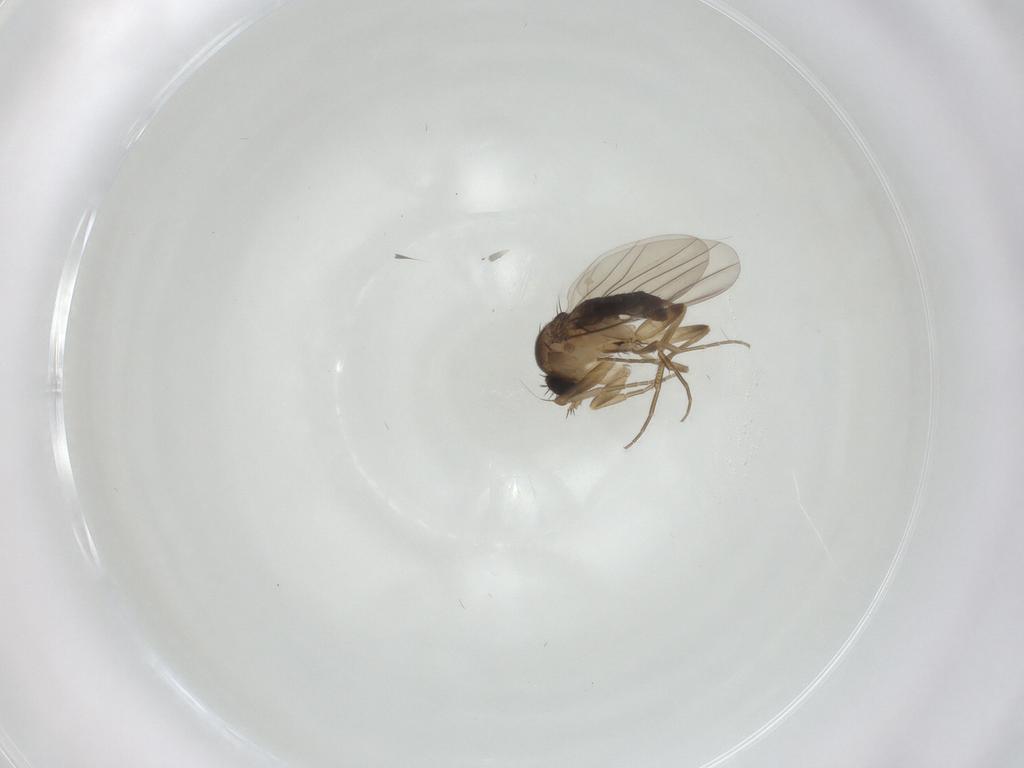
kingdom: Animalia
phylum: Arthropoda
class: Insecta
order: Diptera
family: Phoridae
